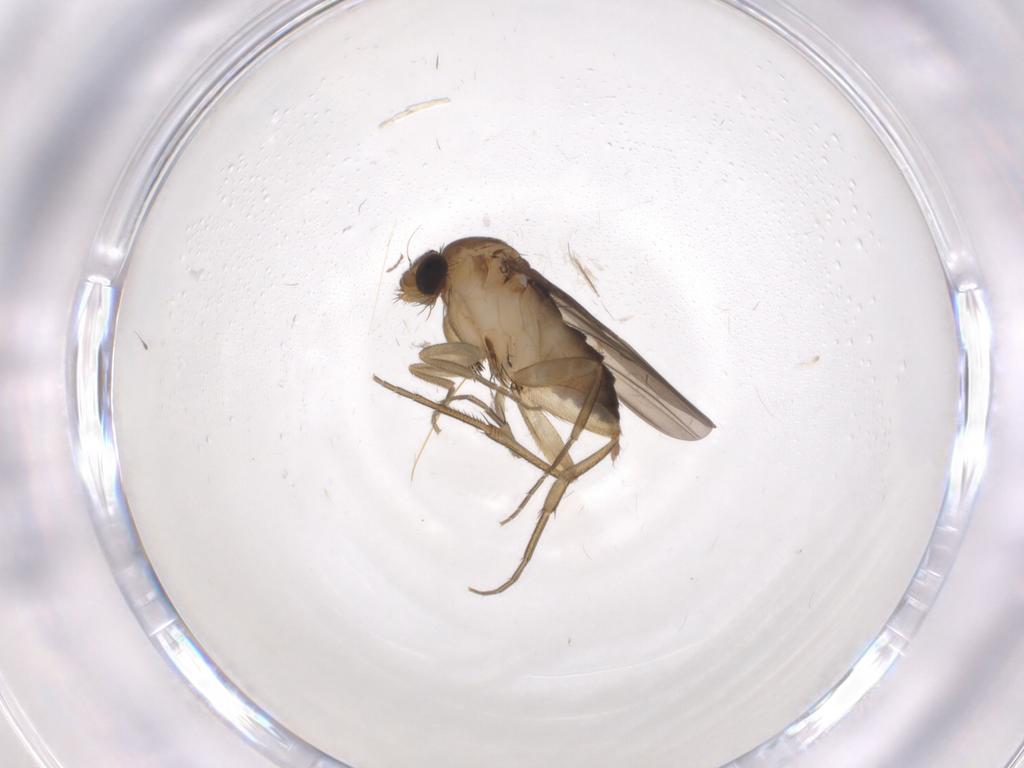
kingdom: Animalia
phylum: Arthropoda
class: Insecta
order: Diptera
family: Phoridae
